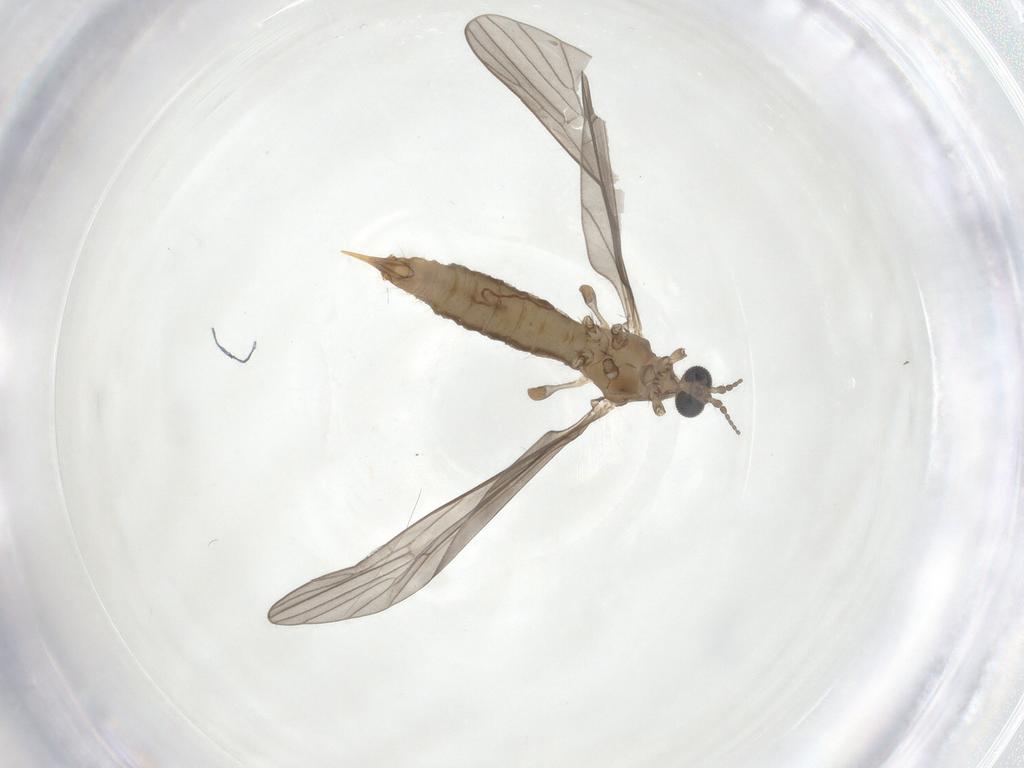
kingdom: Animalia
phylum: Arthropoda
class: Insecta
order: Diptera
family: Limoniidae
